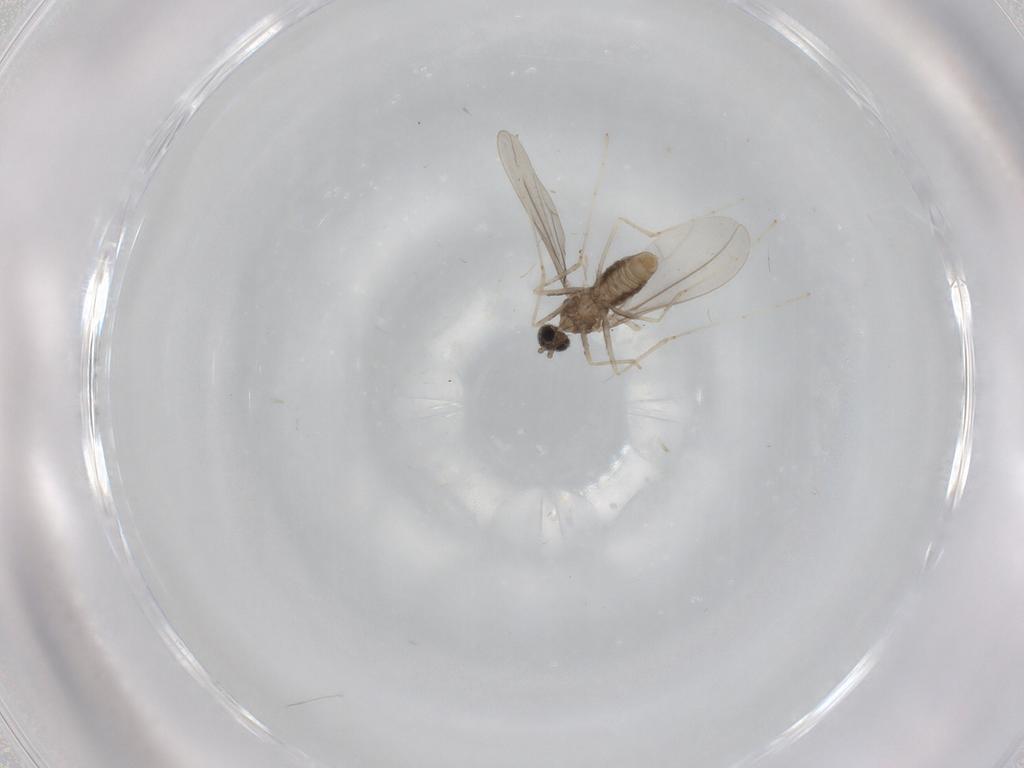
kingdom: Animalia
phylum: Arthropoda
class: Insecta
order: Diptera
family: Cecidomyiidae
